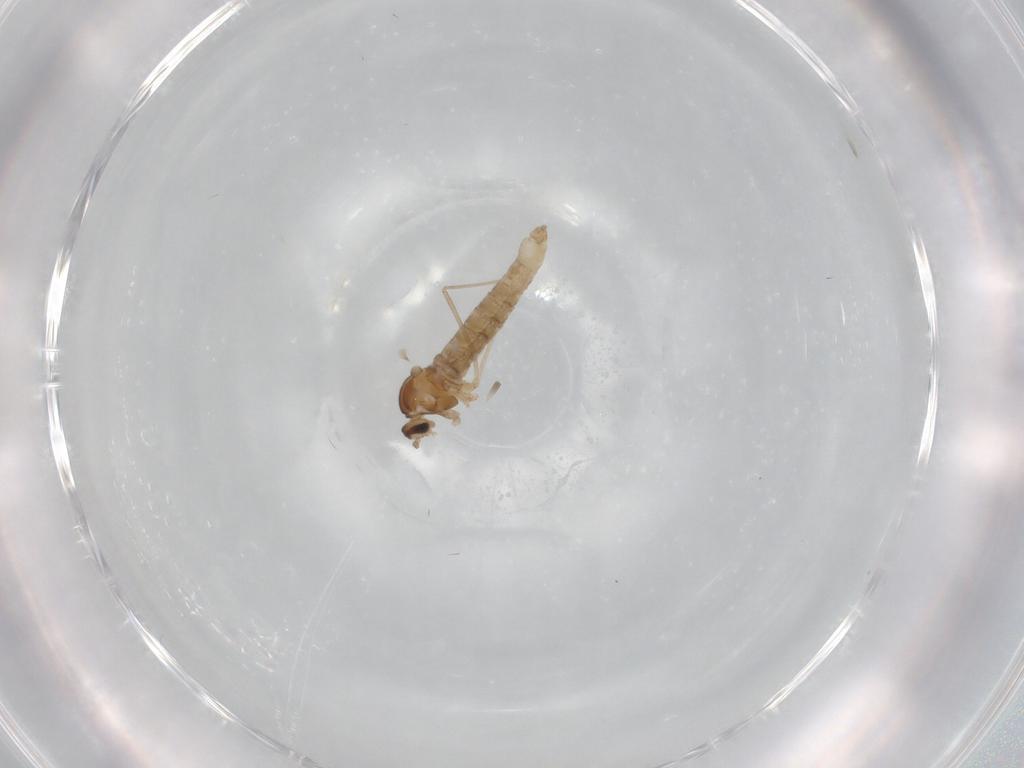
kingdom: Animalia
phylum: Arthropoda
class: Insecta
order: Diptera
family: Cecidomyiidae
